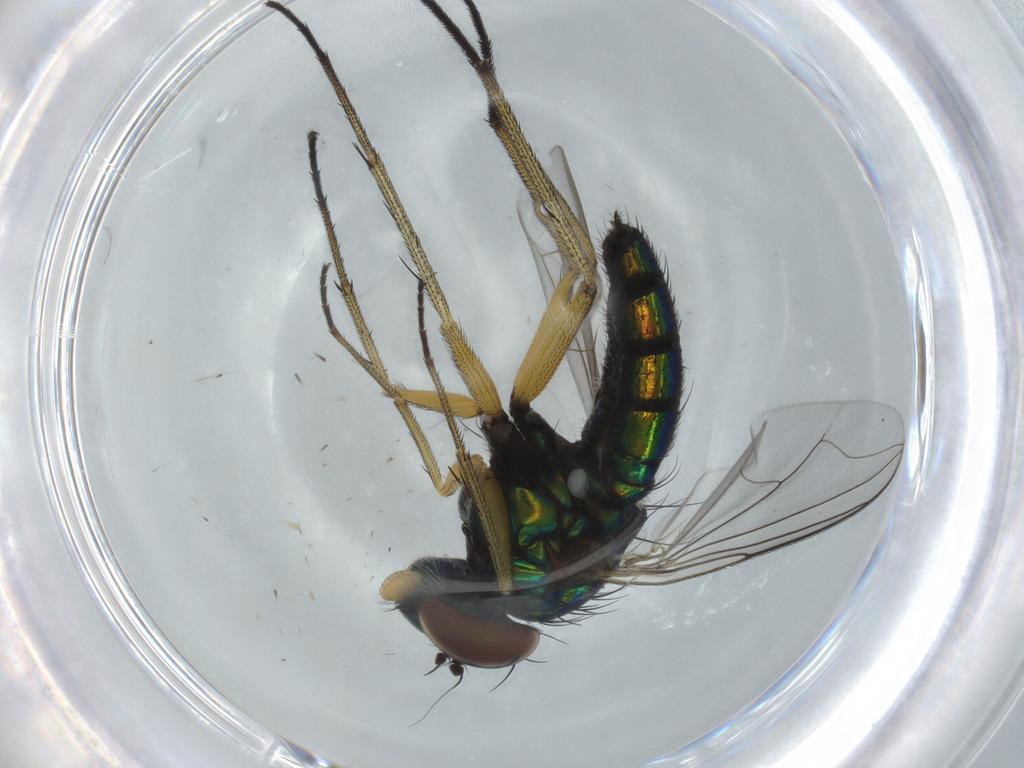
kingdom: Animalia
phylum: Arthropoda
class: Insecta
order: Diptera
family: Dolichopodidae
